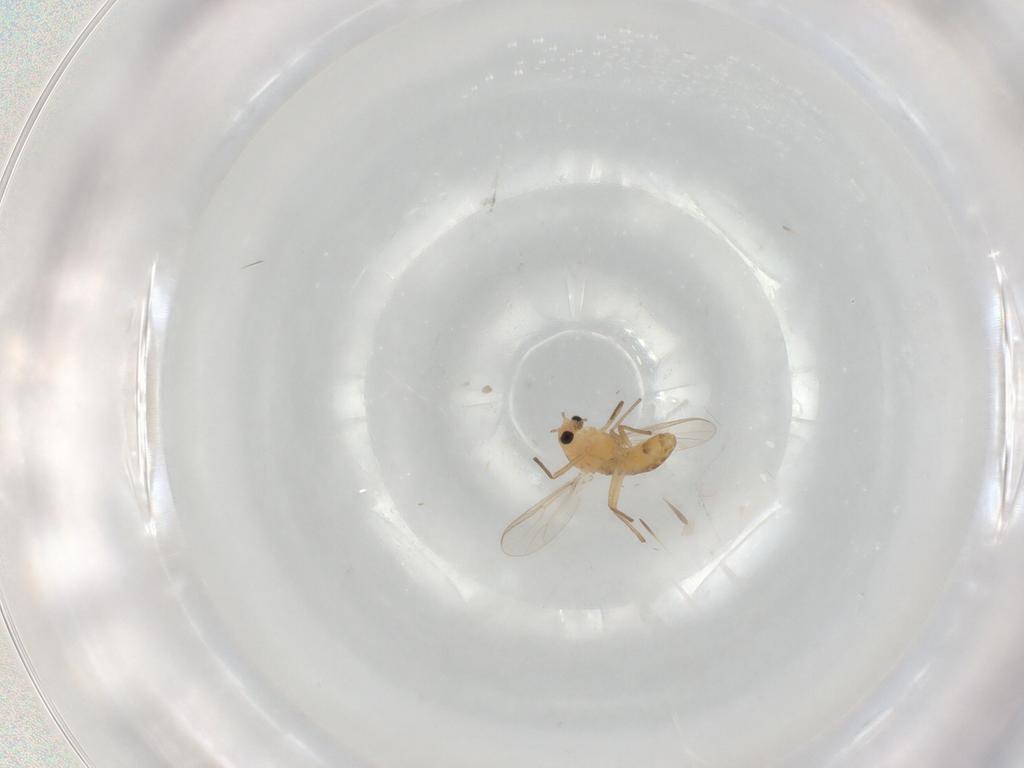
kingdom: Animalia
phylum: Arthropoda
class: Insecta
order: Diptera
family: Chironomidae
